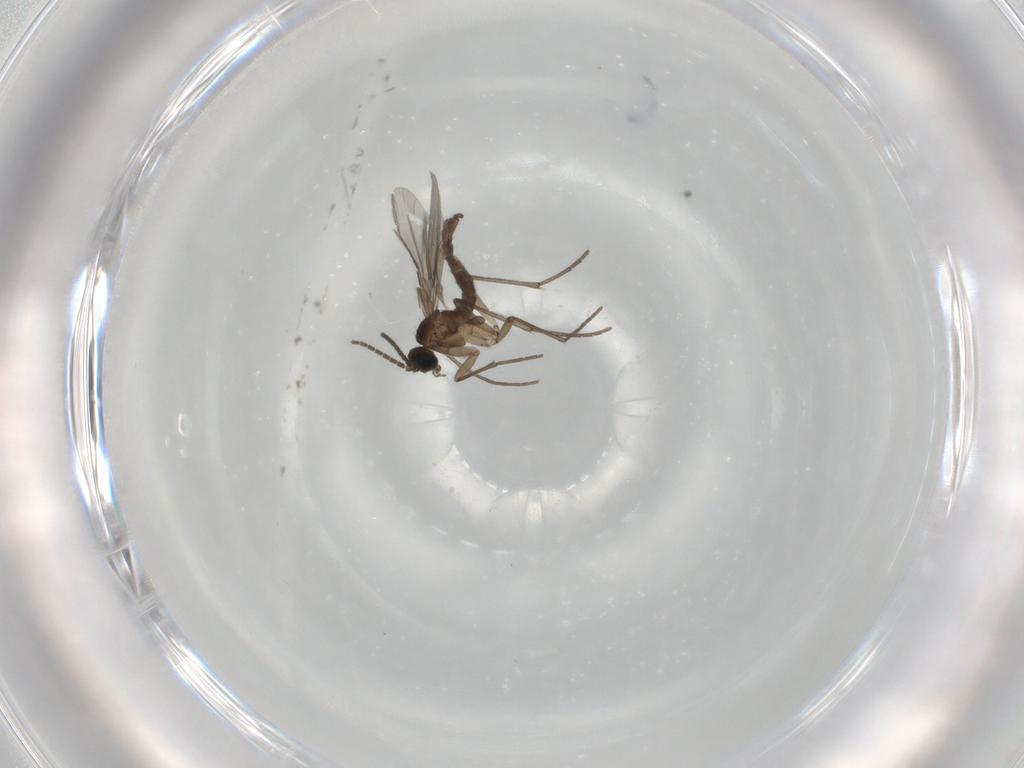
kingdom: Animalia
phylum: Arthropoda
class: Insecta
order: Diptera
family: Sciaridae
